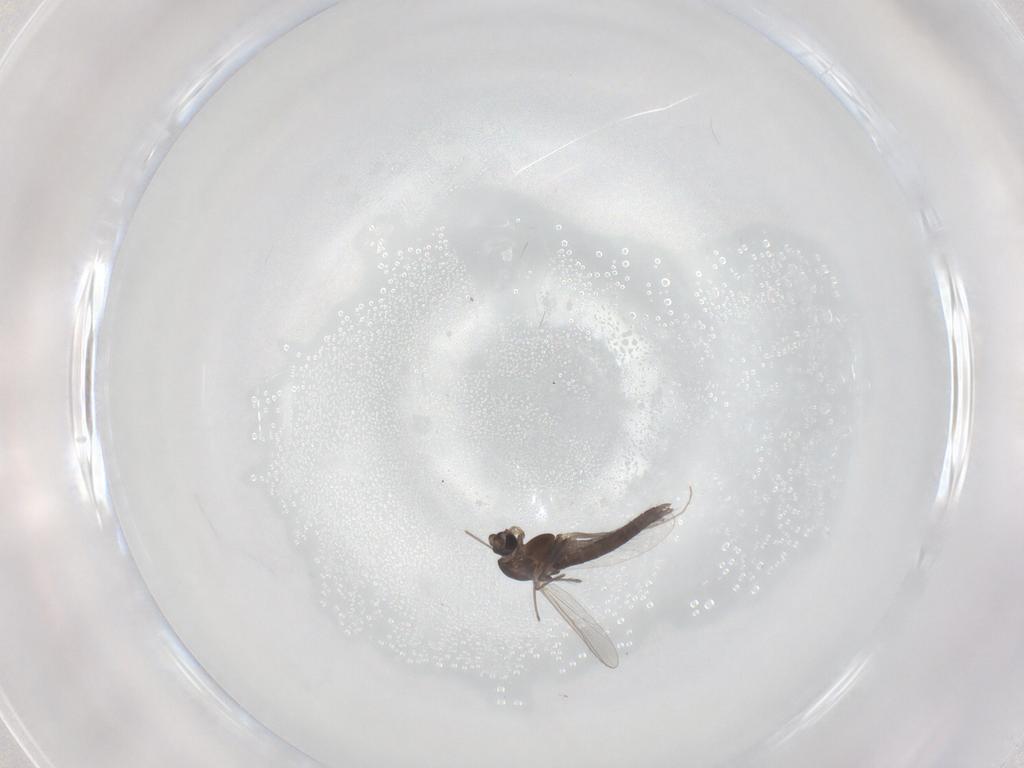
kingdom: Animalia
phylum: Arthropoda
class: Insecta
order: Diptera
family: Chironomidae
